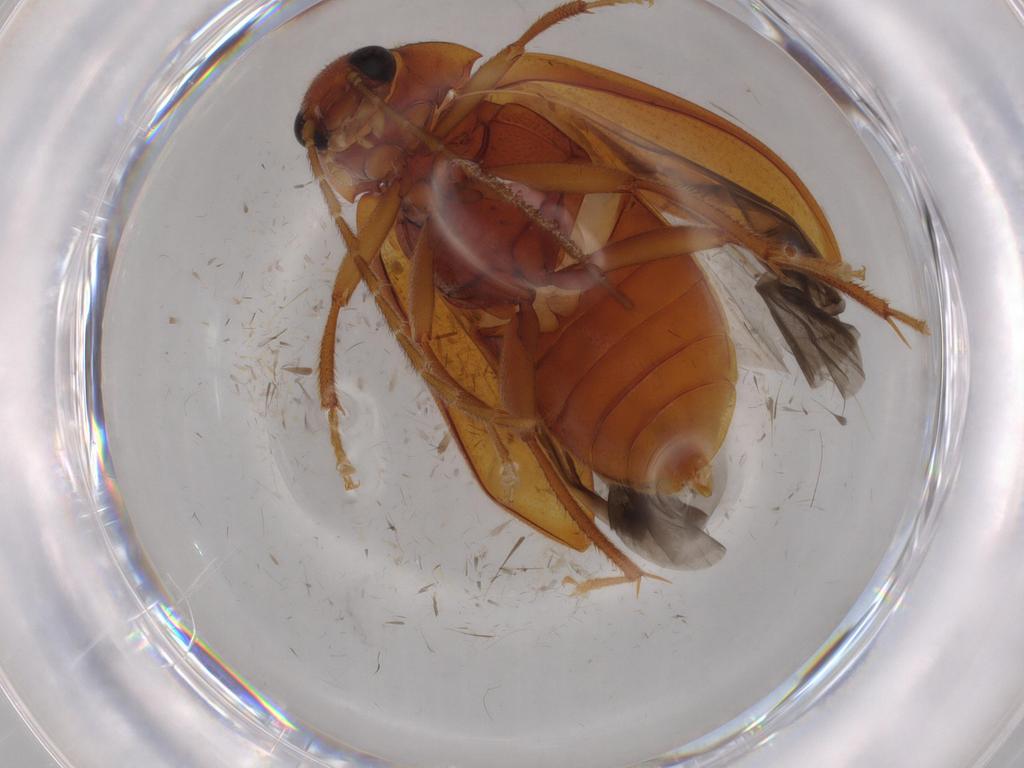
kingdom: Animalia
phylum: Arthropoda
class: Insecta
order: Coleoptera
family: Ptilodactylidae
